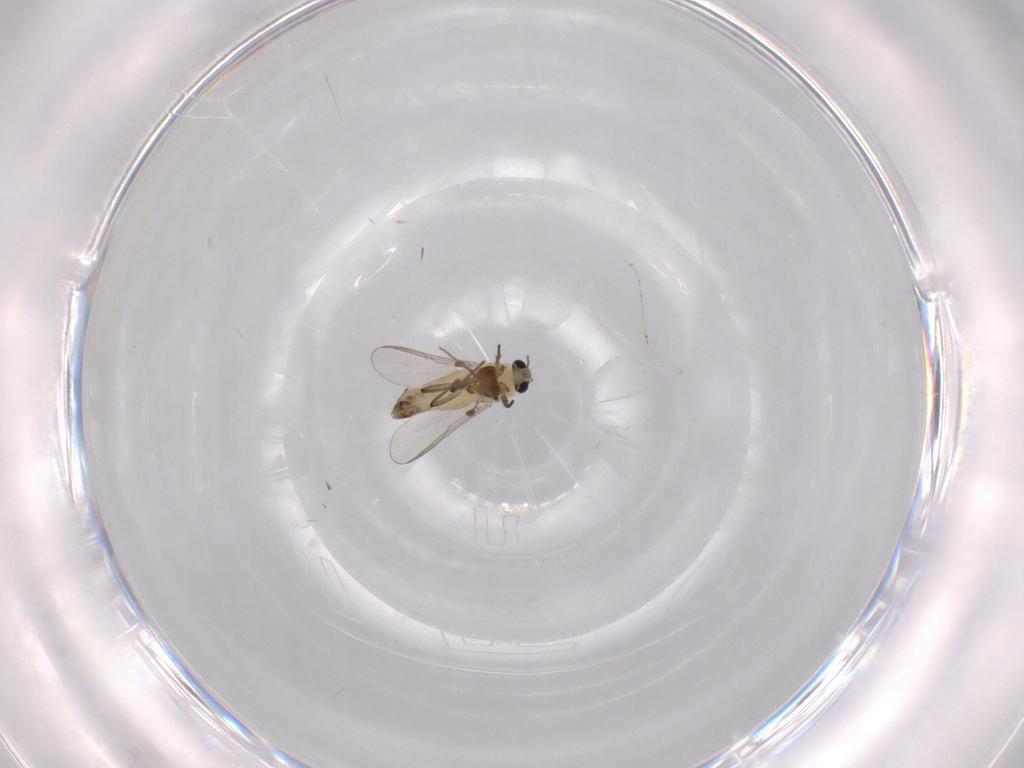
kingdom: Animalia
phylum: Arthropoda
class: Insecta
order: Diptera
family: Chironomidae
